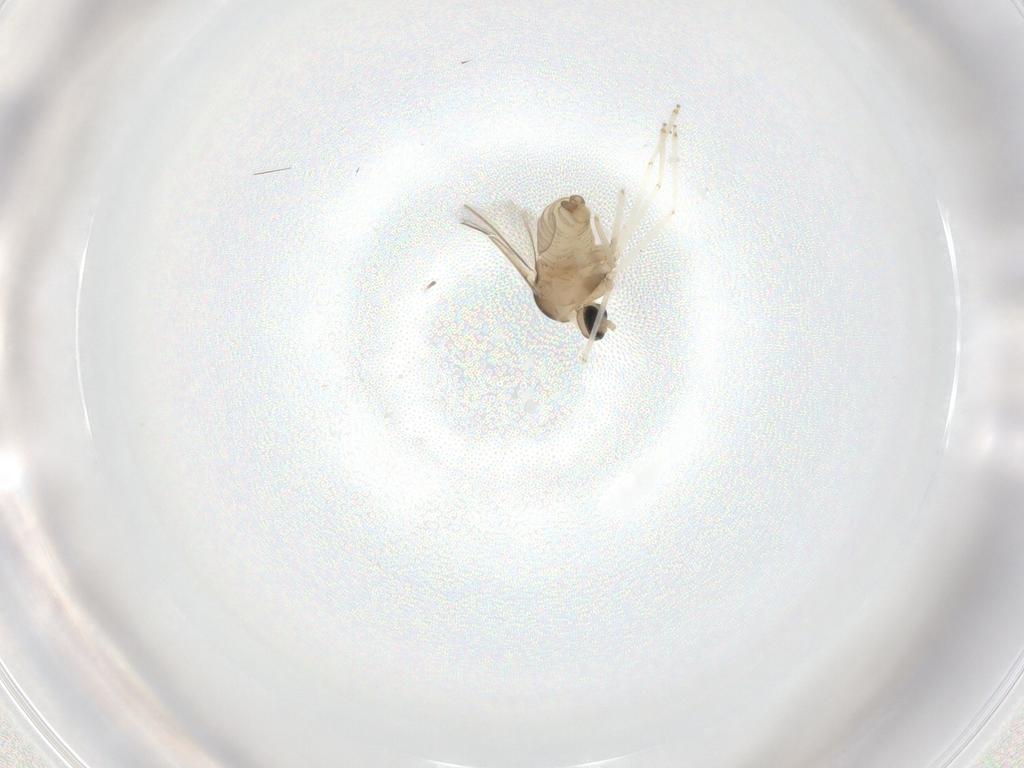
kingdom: Animalia
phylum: Arthropoda
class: Insecta
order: Diptera
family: Cecidomyiidae
